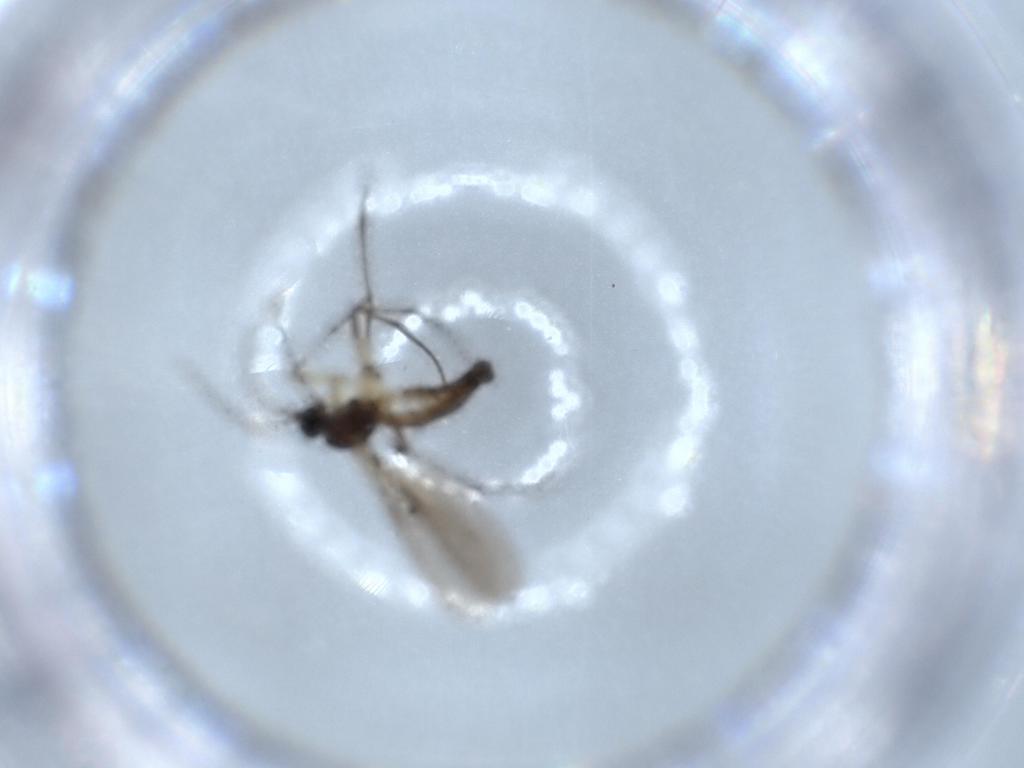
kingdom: Animalia
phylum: Arthropoda
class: Insecta
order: Diptera
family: Sciaridae
